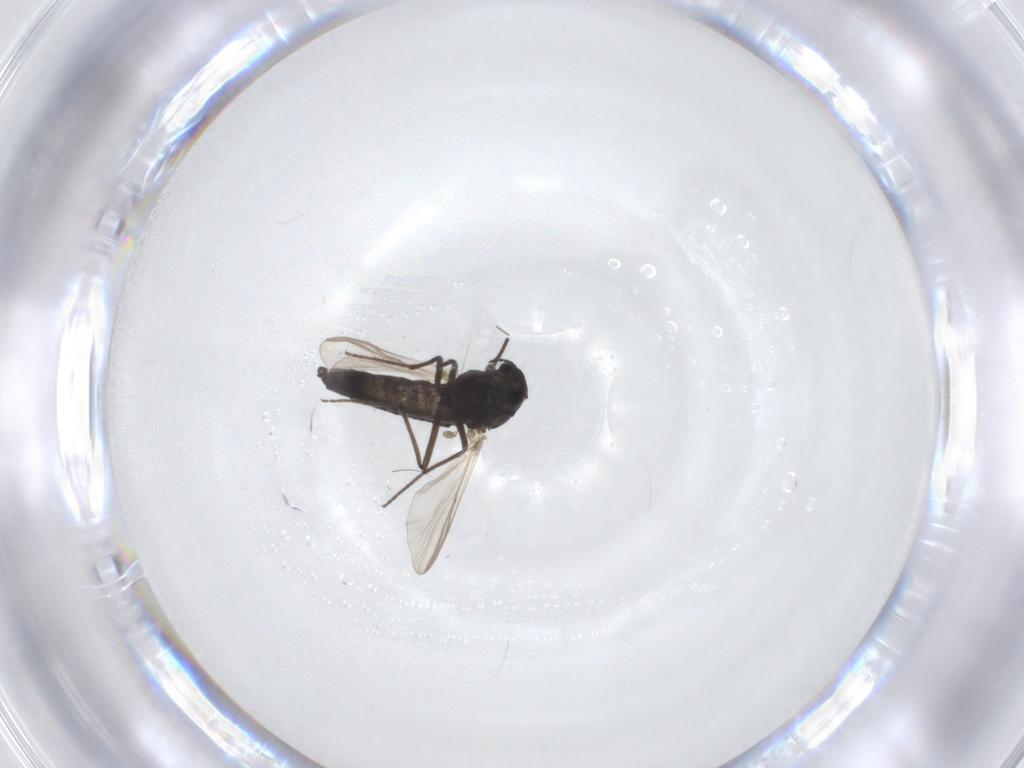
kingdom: Animalia
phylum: Arthropoda
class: Insecta
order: Diptera
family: Chironomidae
